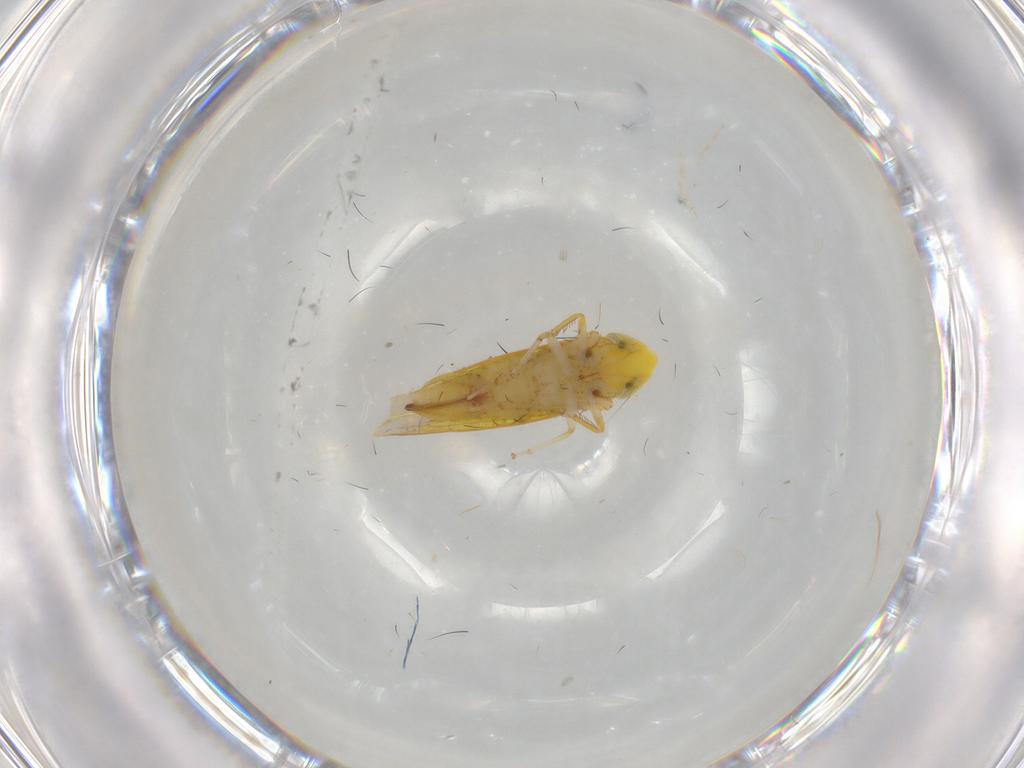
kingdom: Animalia
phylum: Arthropoda
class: Insecta
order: Hemiptera
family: Cicadellidae
